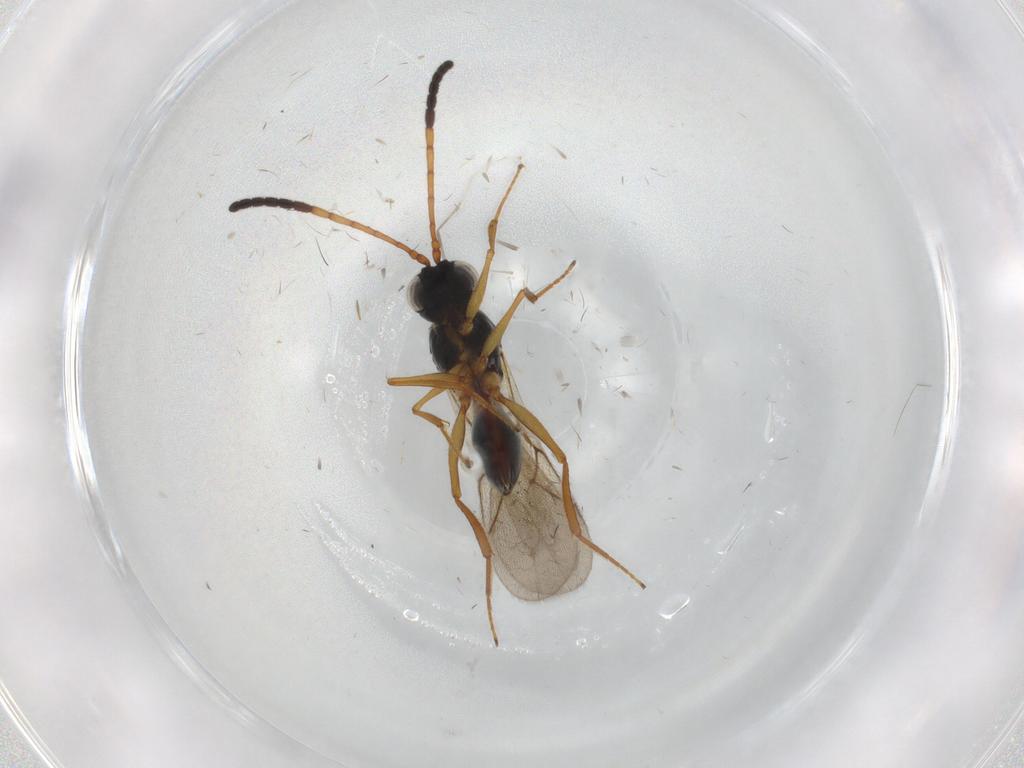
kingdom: Animalia
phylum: Arthropoda
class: Insecta
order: Hymenoptera
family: Figitidae
